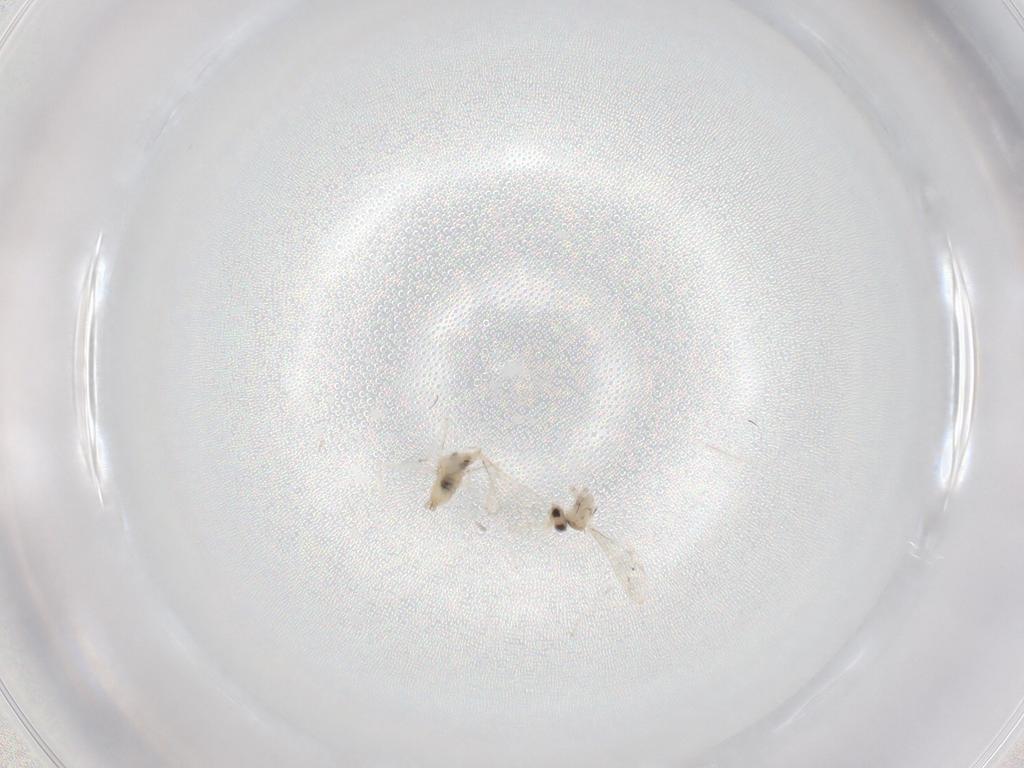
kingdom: Animalia
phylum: Arthropoda
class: Insecta
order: Diptera
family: Cecidomyiidae
